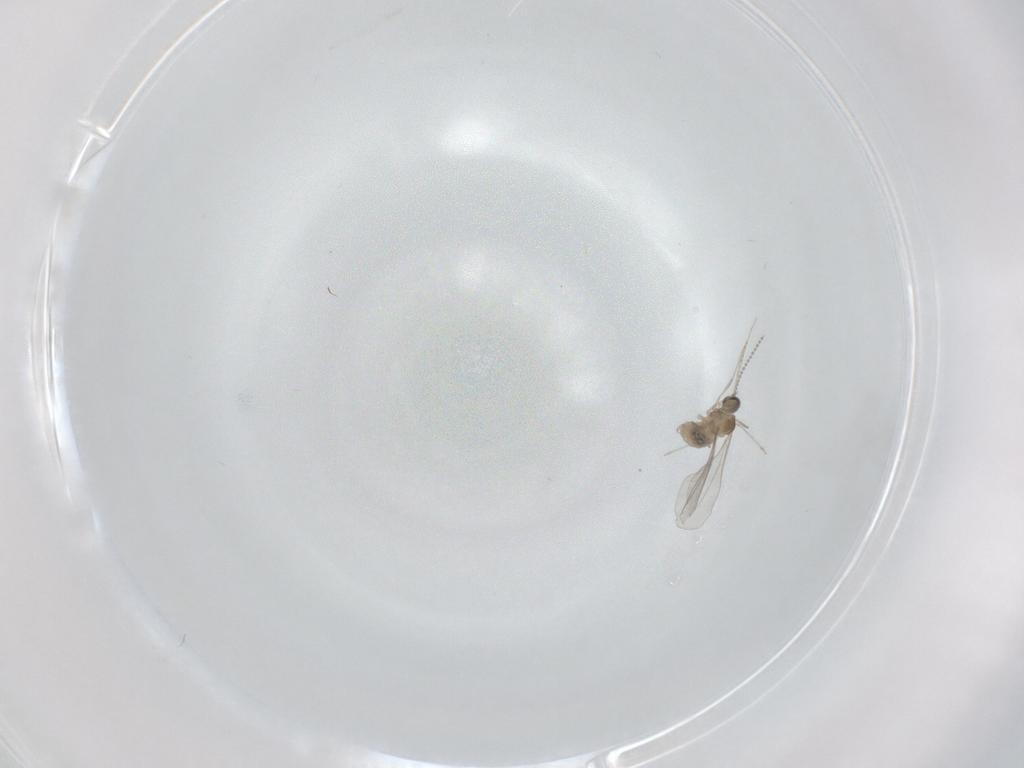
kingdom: Animalia
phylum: Arthropoda
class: Insecta
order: Diptera
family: Cecidomyiidae
